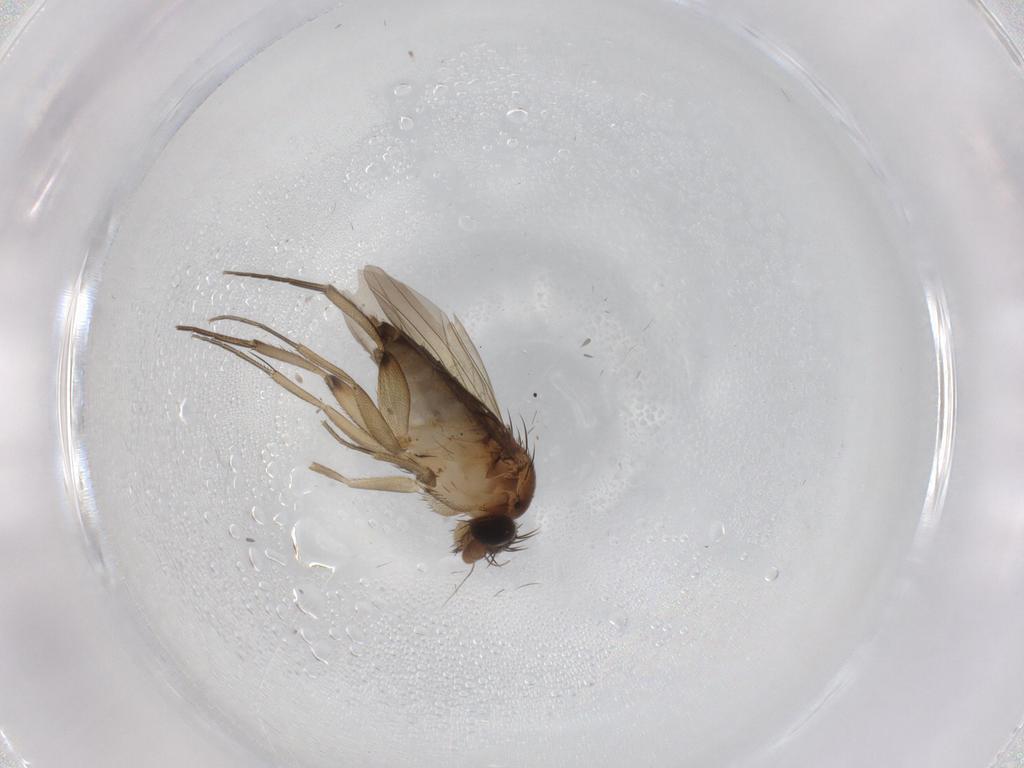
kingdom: Animalia
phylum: Arthropoda
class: Insecta
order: Diptera
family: Phoridae
